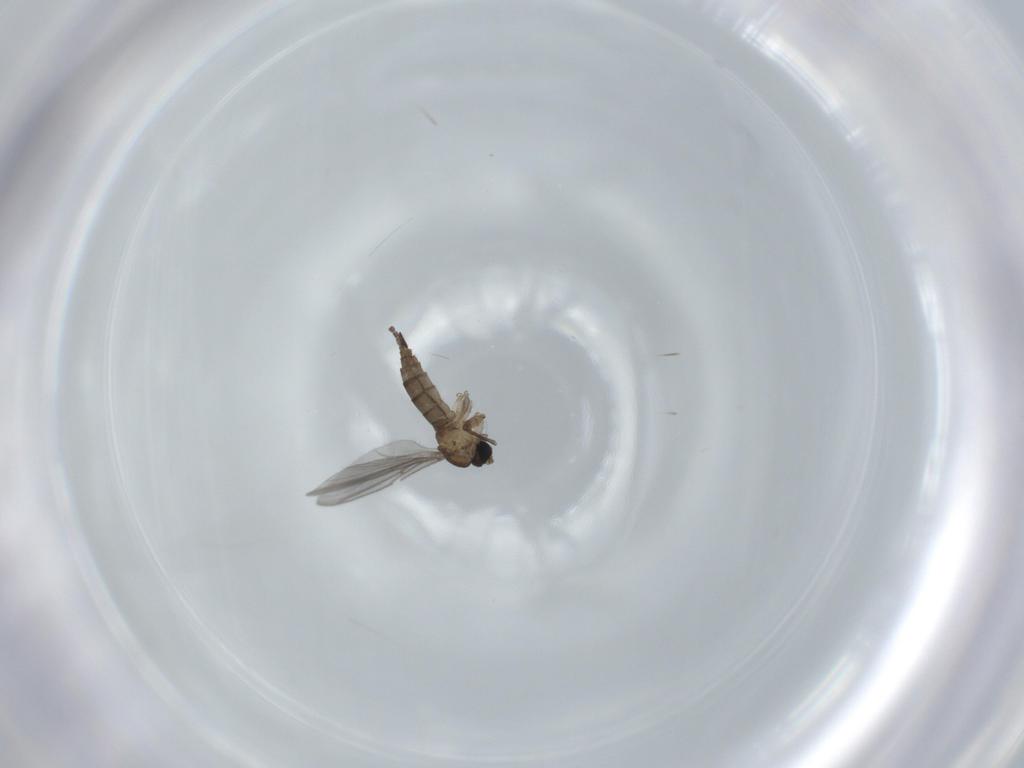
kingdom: Animalia
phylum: Arthropoda
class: Insecta
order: Diptera
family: Sciaridae
